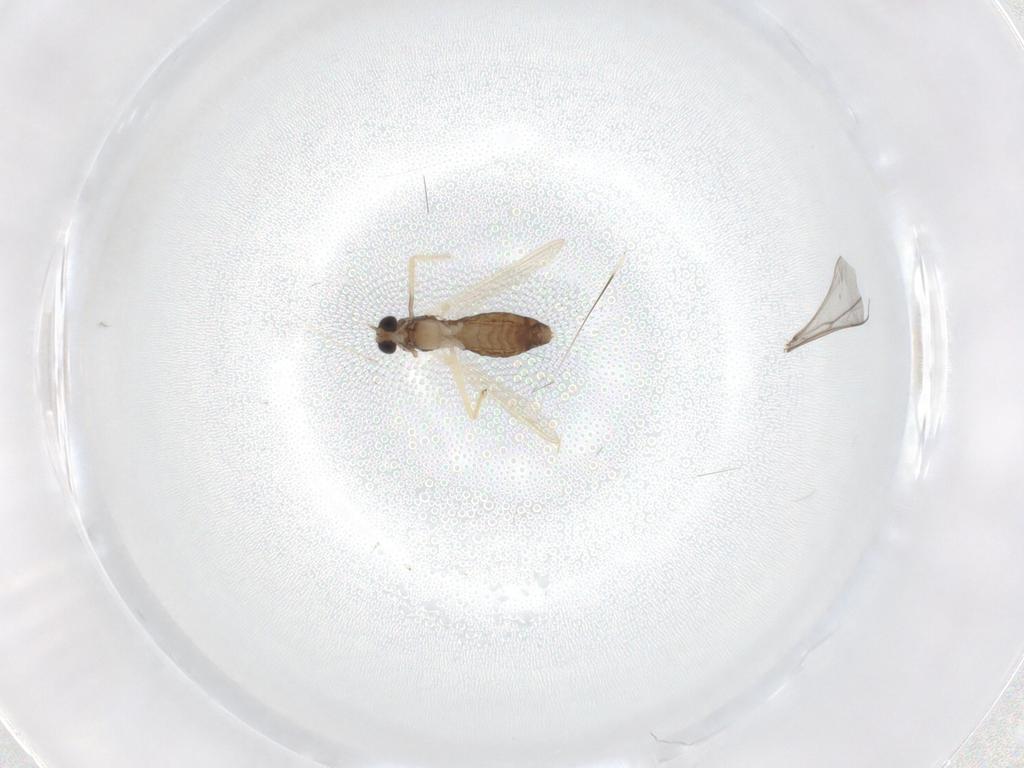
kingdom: Animalia
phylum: Arthropoda
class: Insecta
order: Diptera
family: Chironomidae
